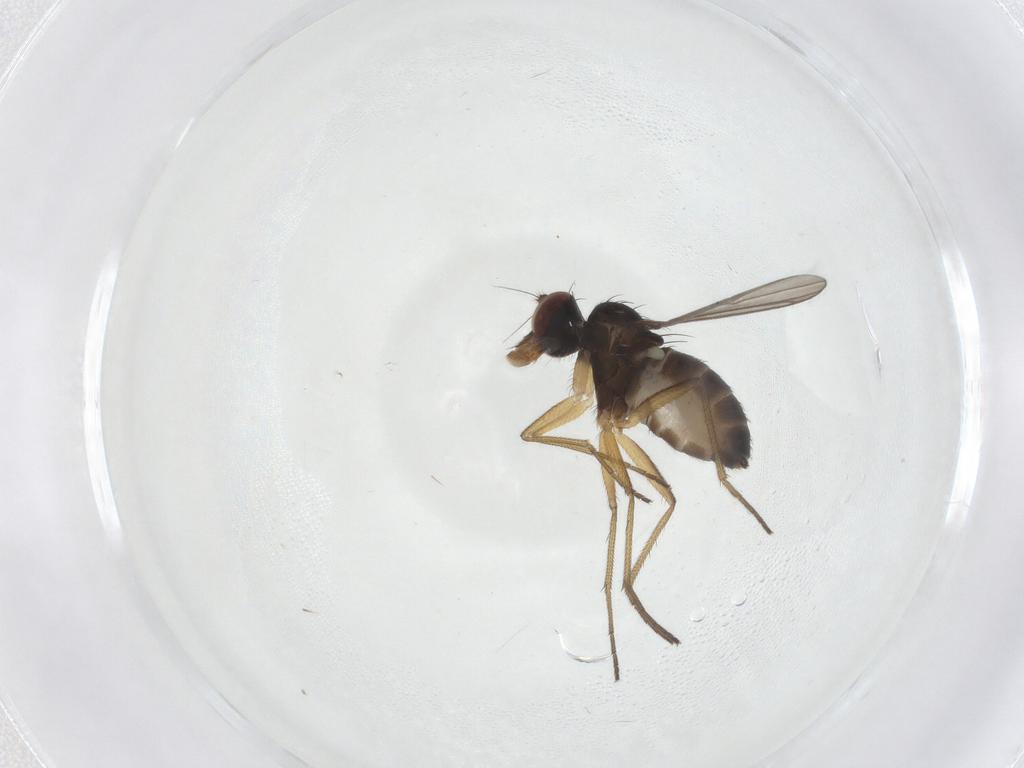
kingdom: Animalia
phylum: Arthropoda
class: Insecta
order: Diptera
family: Dolichopodidae
